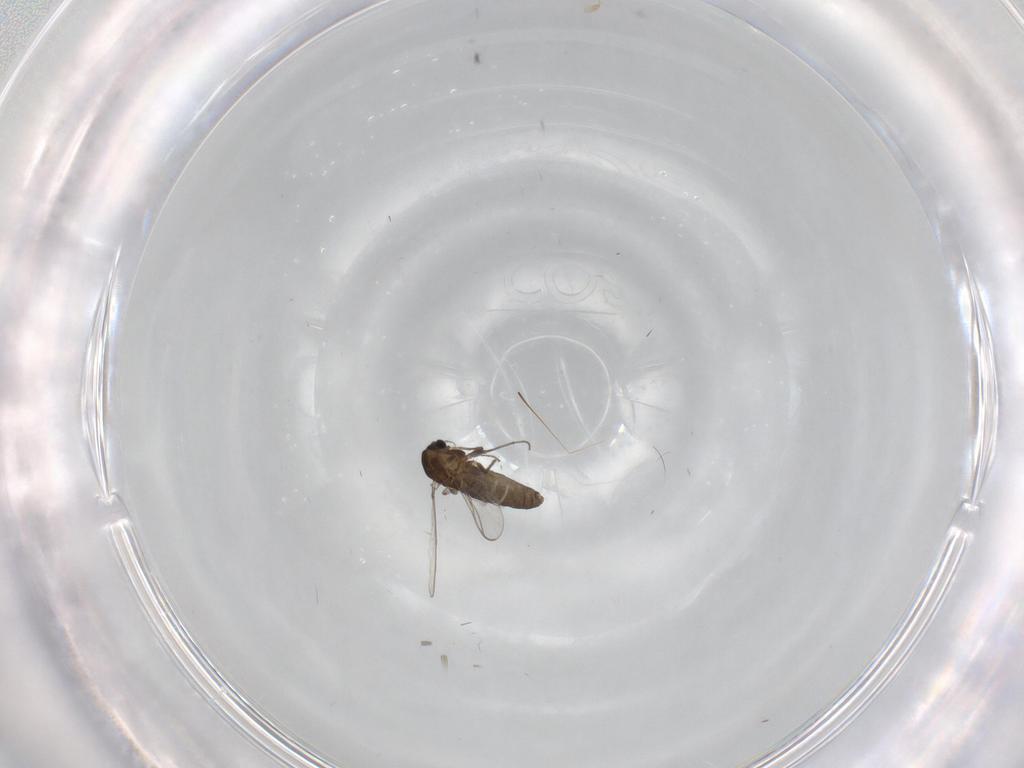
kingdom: Animalia
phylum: Arthropoda
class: Insecta
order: Diptera
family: Chironomidae
